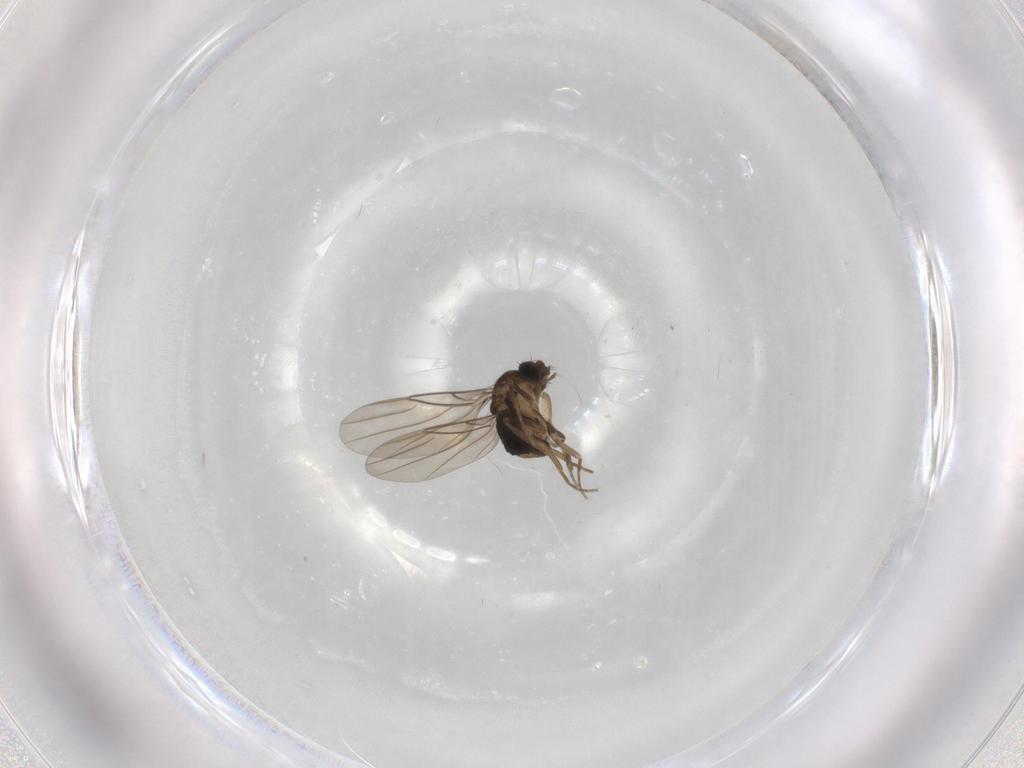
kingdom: Animalia
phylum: Arthropoda
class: Insecta
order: Diptera
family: Phoridae
